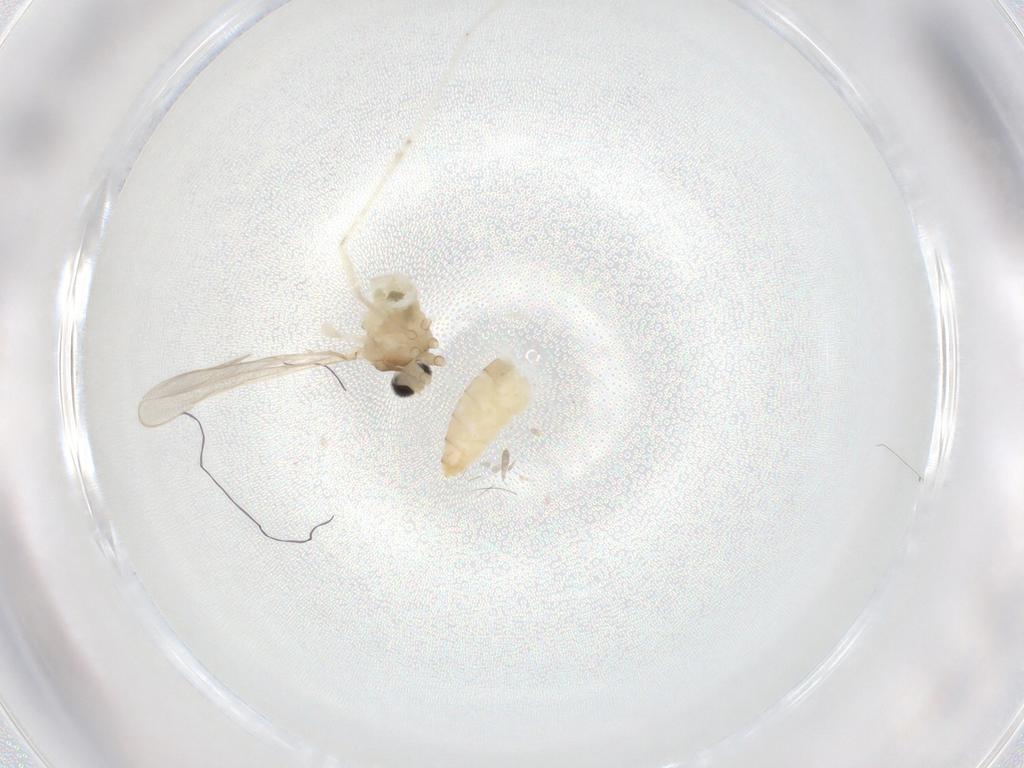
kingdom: Animalia
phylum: Arthropoda
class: Insecta
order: Diptera
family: Cecidomyiidae
